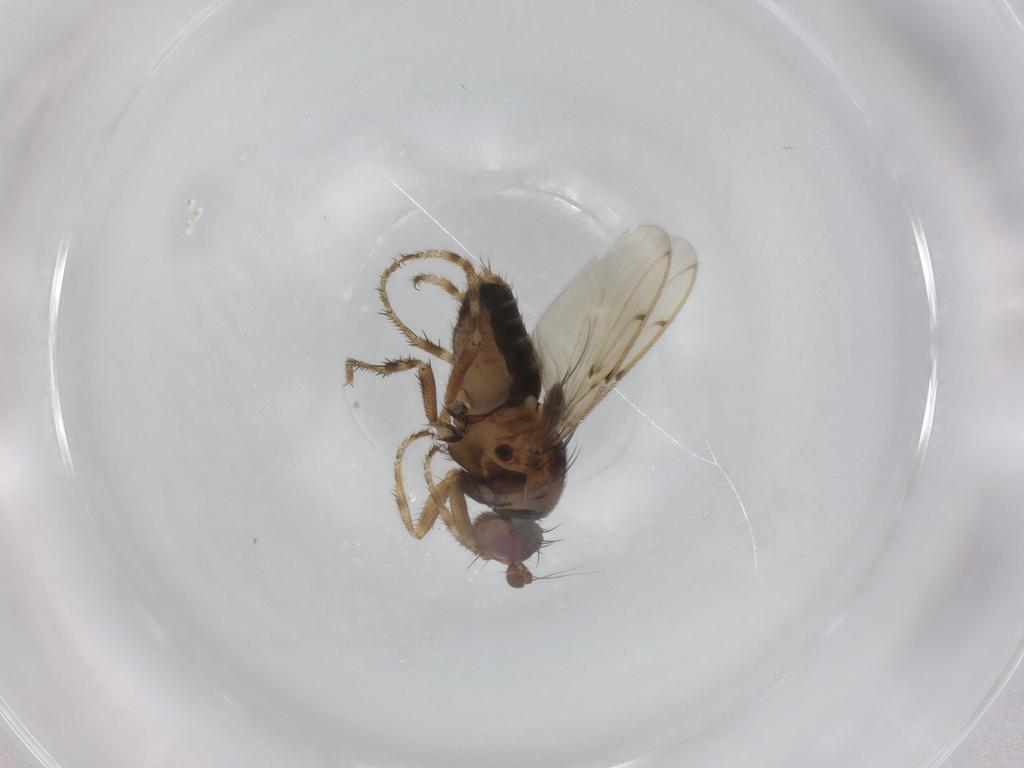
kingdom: Animalia
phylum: Arthropoda
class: Insecta
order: Diptera
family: Sphaeroceridae
